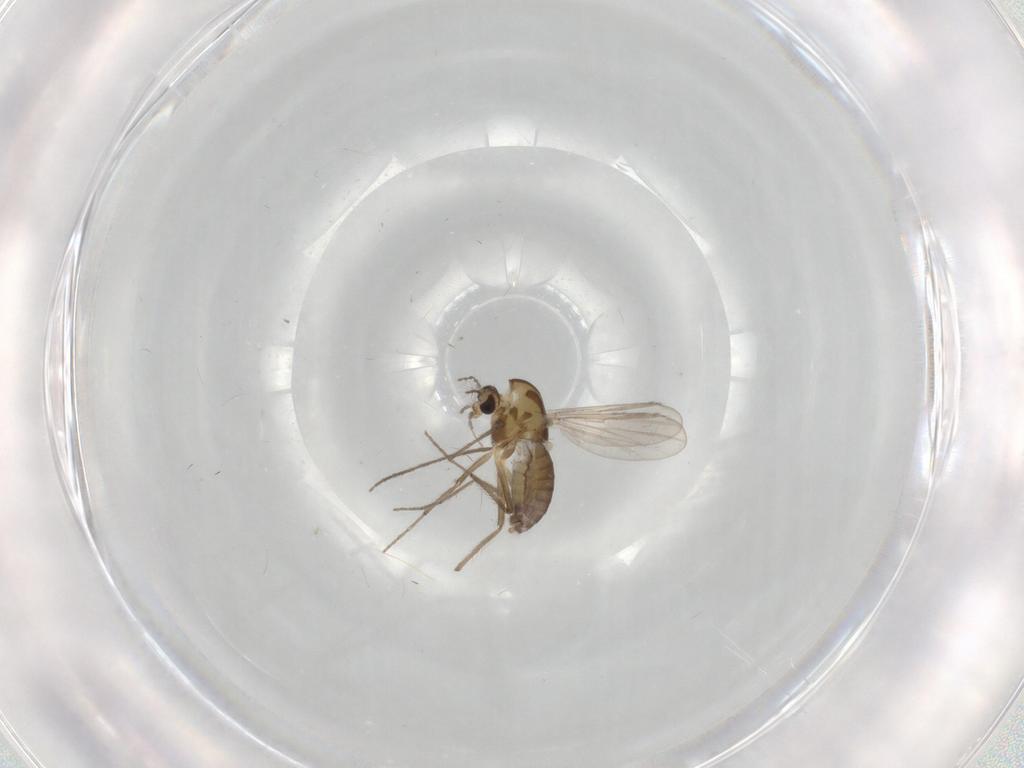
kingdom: Animalia
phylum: Arthropoda
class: Insecta
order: Diptera
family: Chironomidae
